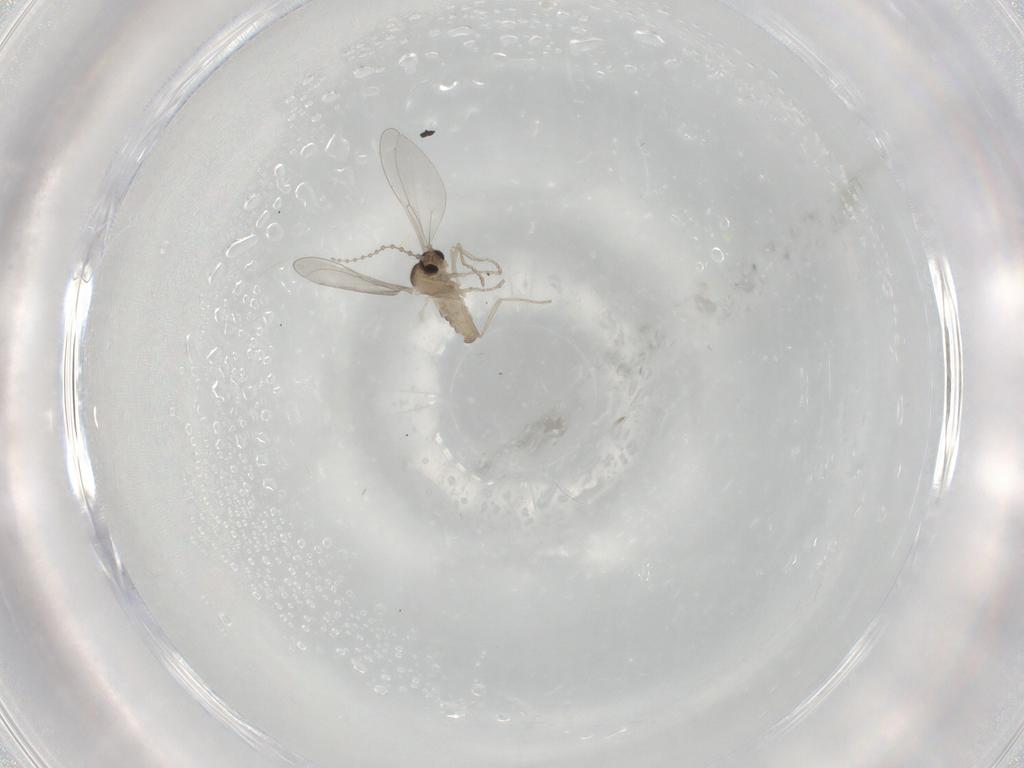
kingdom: Animalia
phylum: Arthropoda
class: Insecta
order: Diptera
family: Cecidomyiidae
